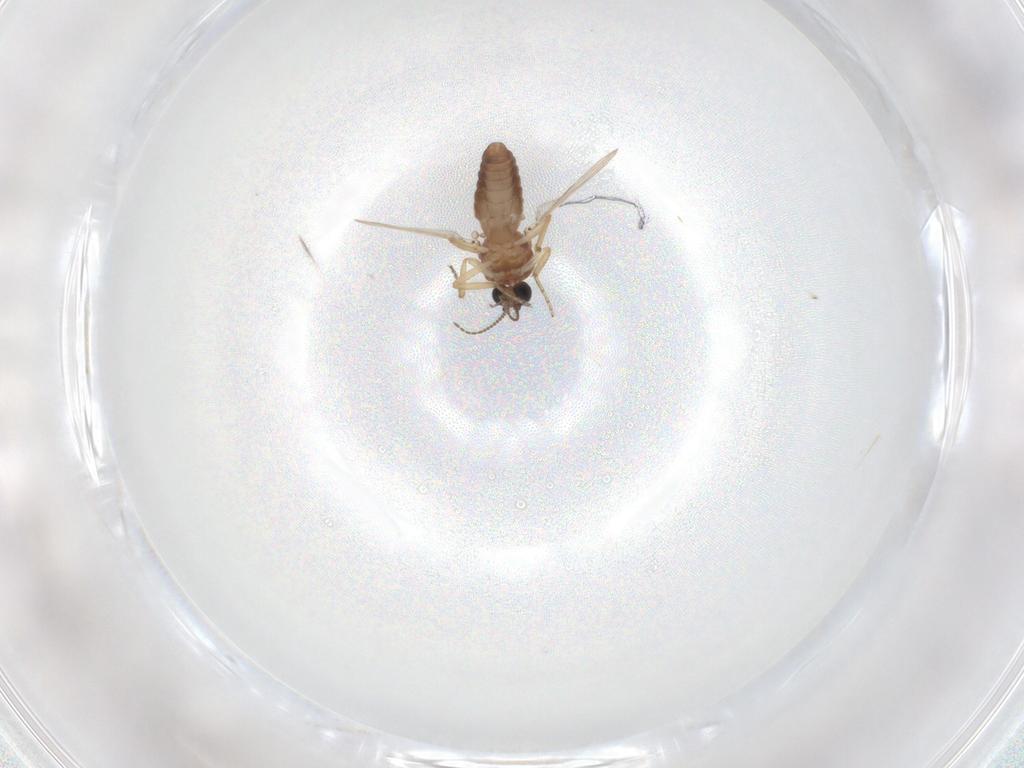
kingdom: Animalia
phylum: Arthropoda
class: Insecta
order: Diptera
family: Ceratopogonidae
